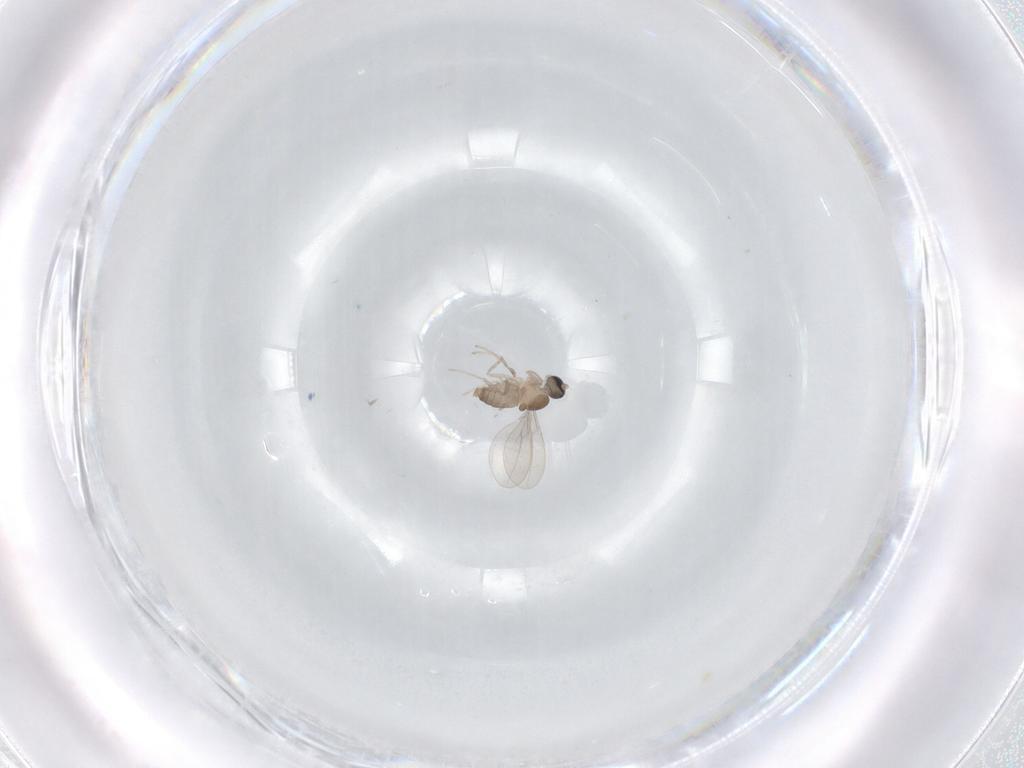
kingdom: Animalia
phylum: Arthropoda
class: Insecta
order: Diptera
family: Cecidomyiidae
